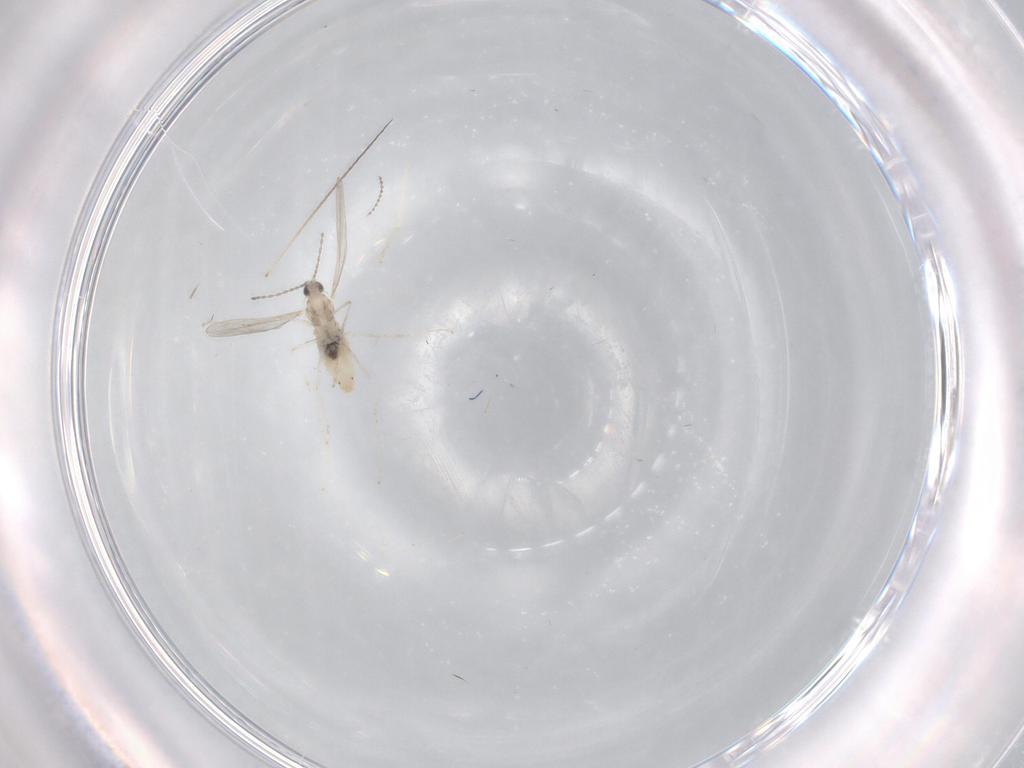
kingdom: Animalia
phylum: Arthropoda
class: Insecta
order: Diptera
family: Cecidomyiidae
